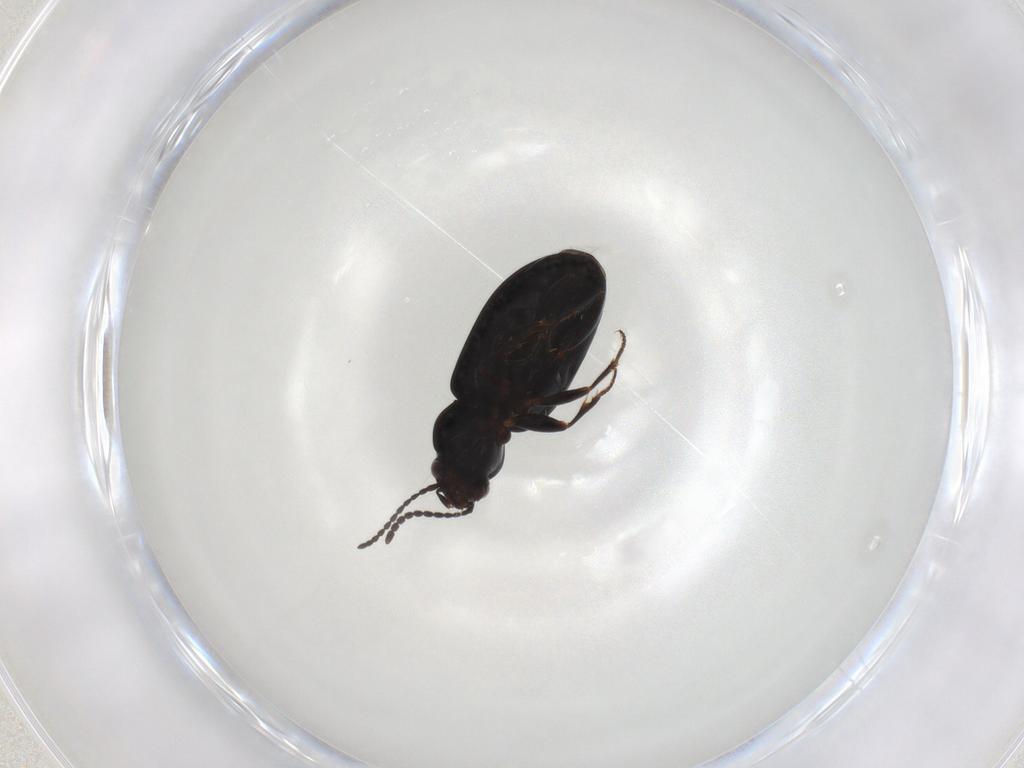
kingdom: Animalia
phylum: Arthropoda
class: Insecta
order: Coleoptera
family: Carabidae
